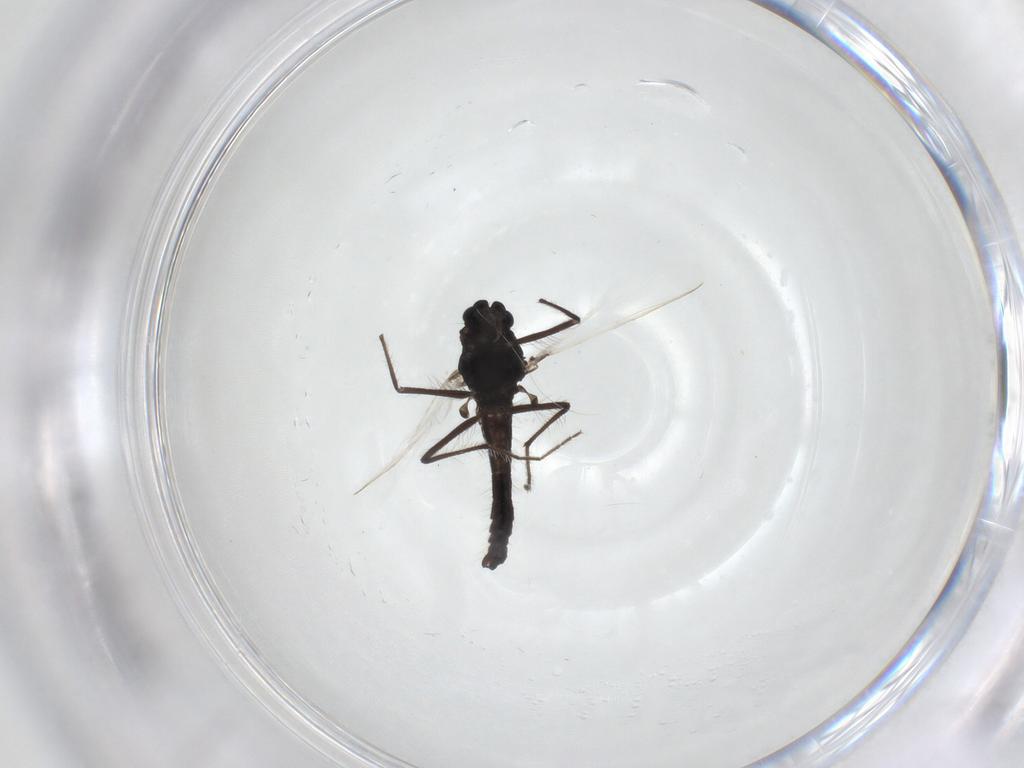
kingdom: Animalia
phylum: Arthropoda
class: Insecta
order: Diptera
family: Chironomidae
